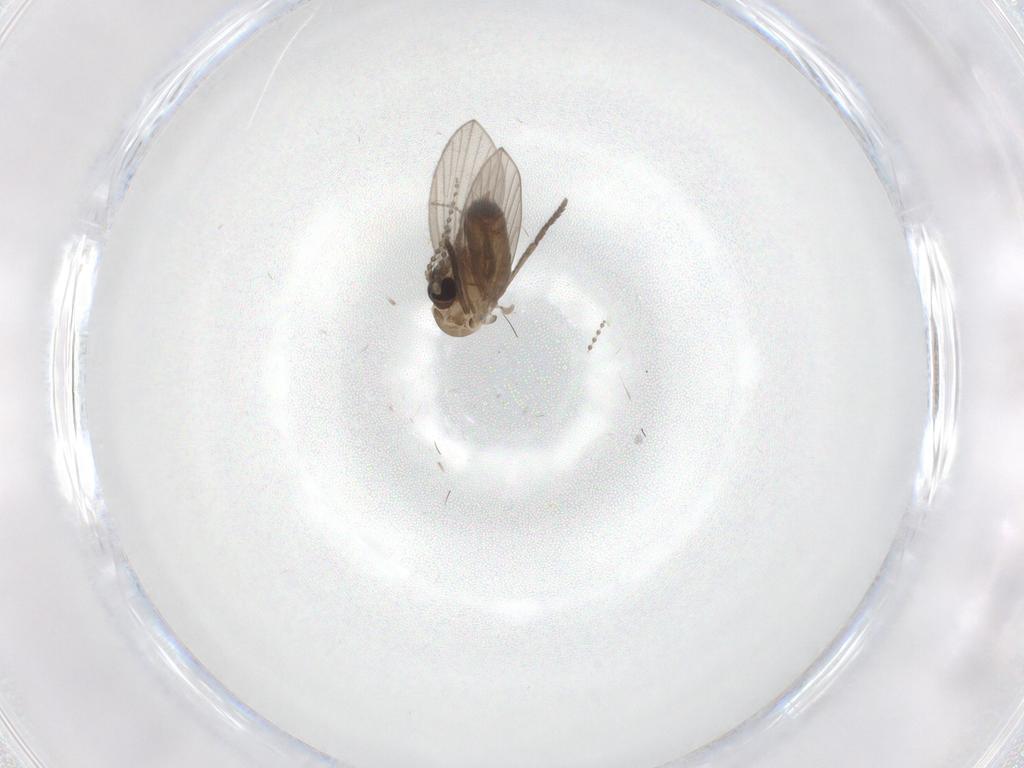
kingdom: Animalia
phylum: Arthropoda
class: Insecta
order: Diptera
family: Psychodidae
